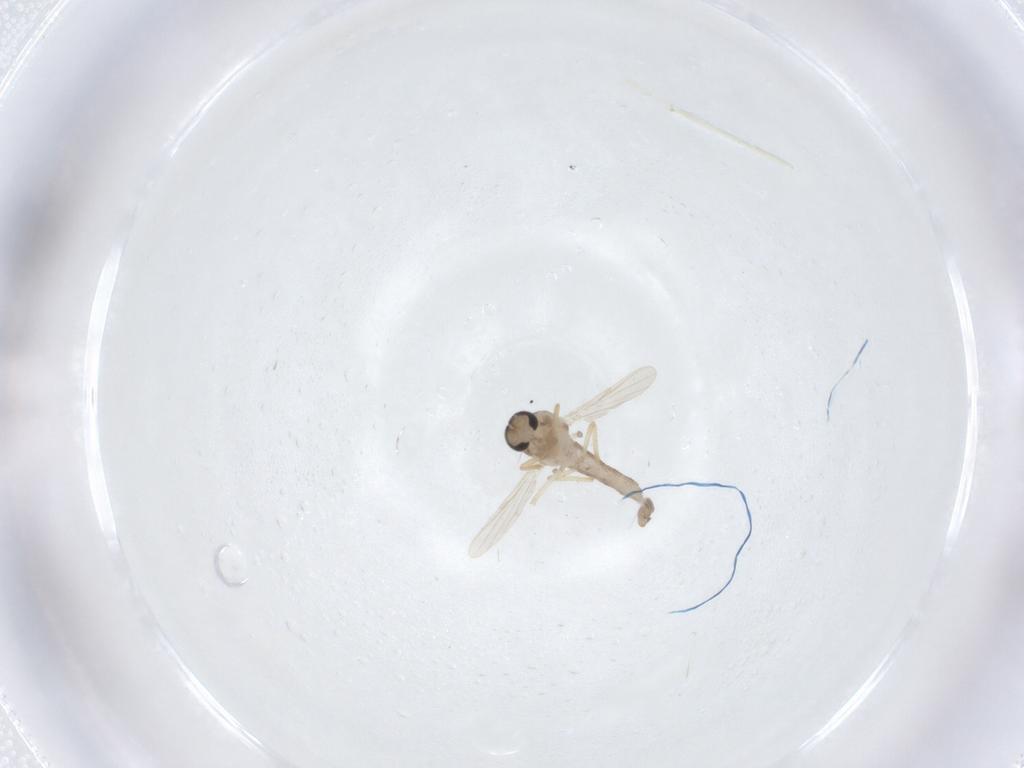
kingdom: Animalia
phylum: Arthropoda
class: Insecta
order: Diptera
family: Ceratopogonidae
